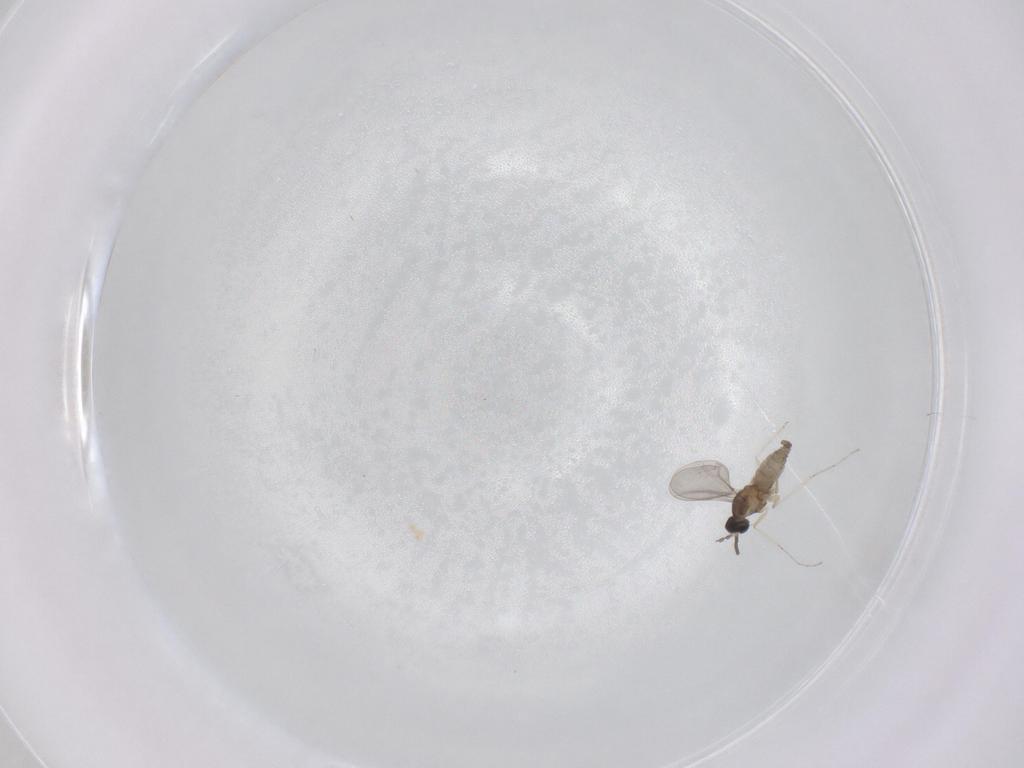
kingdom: Animalia
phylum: Arthropoda
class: Insecta
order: Diptera
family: Cecidomyiidae
